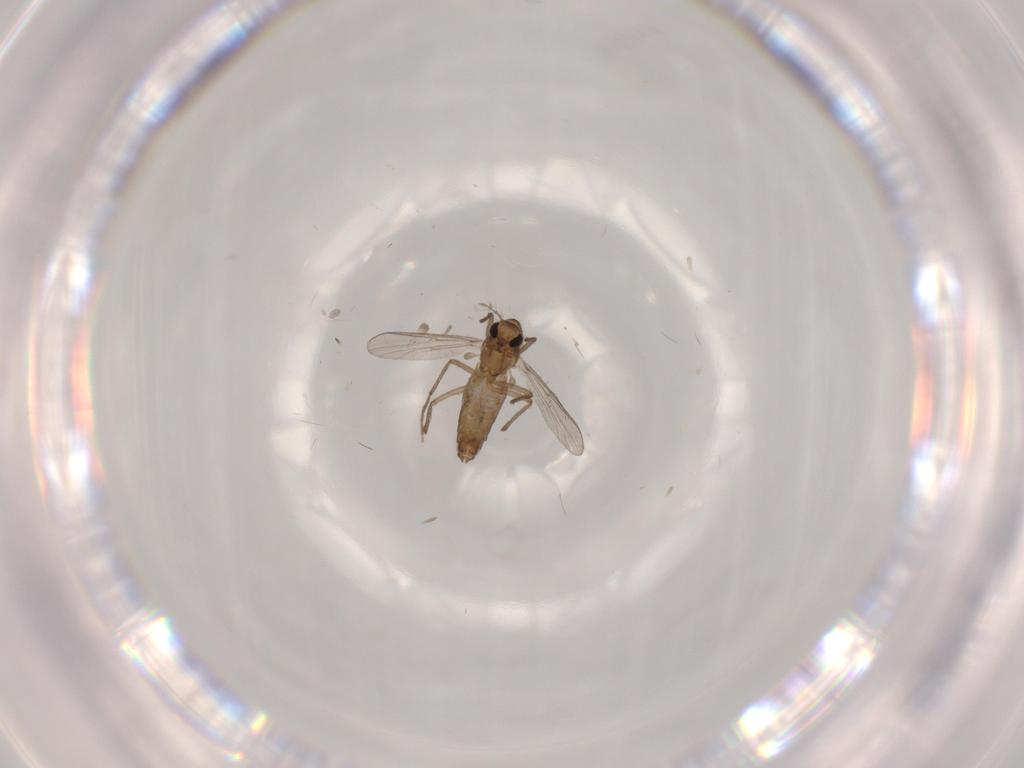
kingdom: Animalia
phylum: Arthropoda
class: Insecta
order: Diptera
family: Chironomidae
